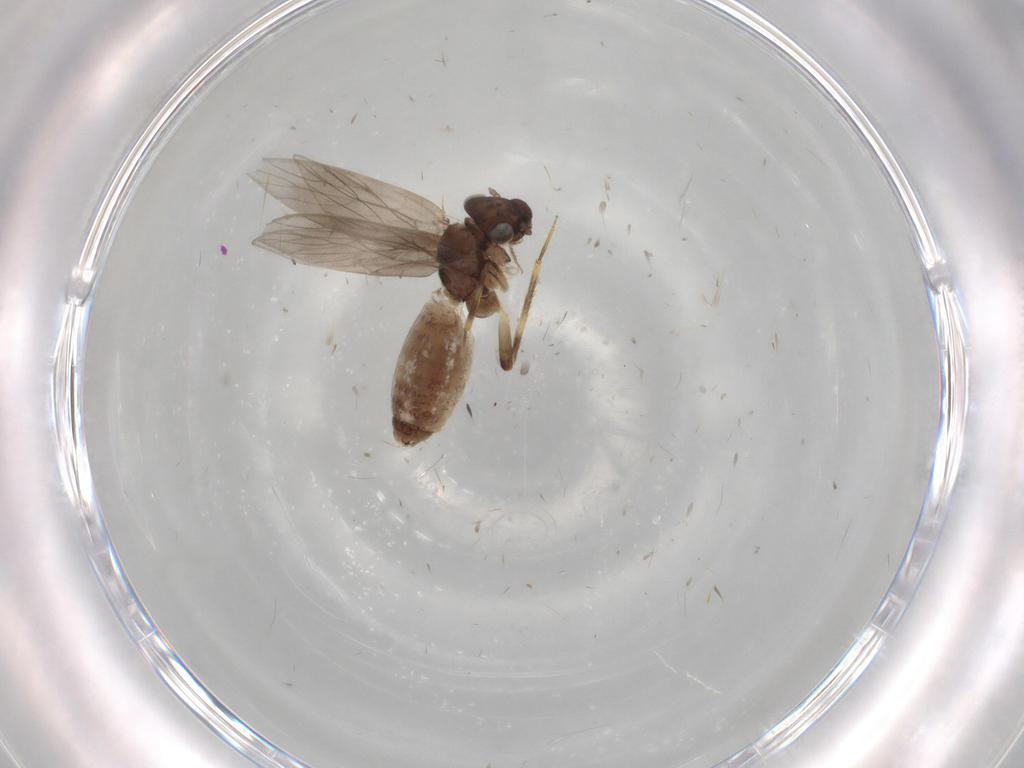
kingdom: Animalia
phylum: Arthropoda
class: Insecta
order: Psocodea
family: Lepidopsocidae
